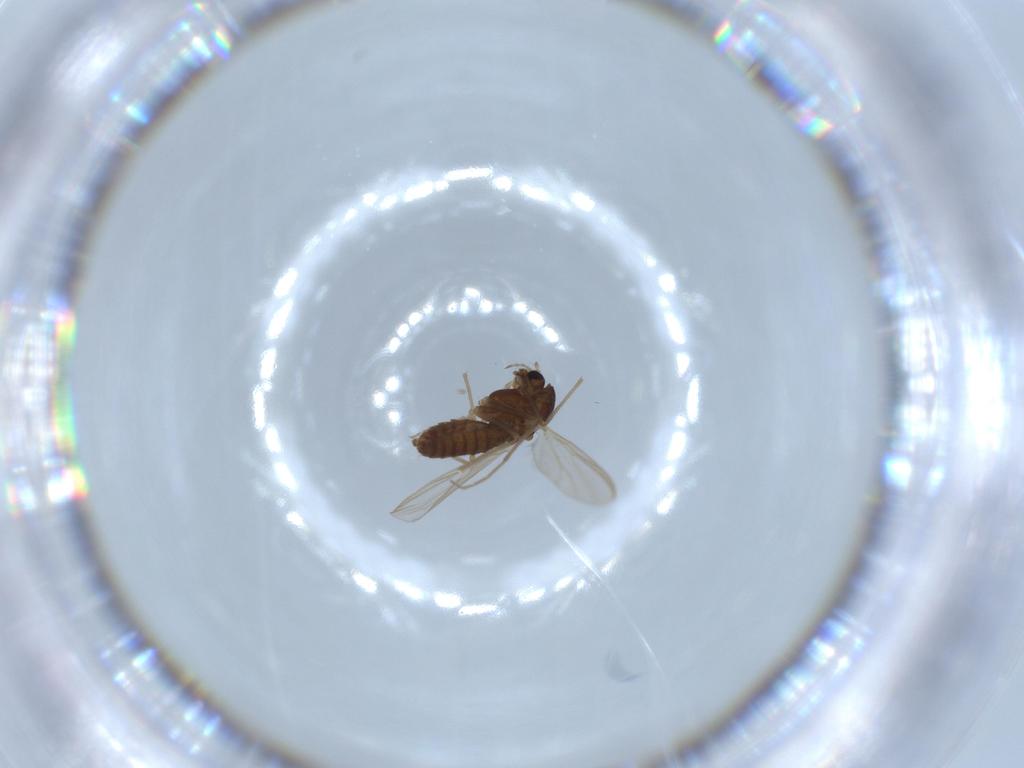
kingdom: Animalia
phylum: Arthropoda
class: Insecta
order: Diptera
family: Chironomidae
